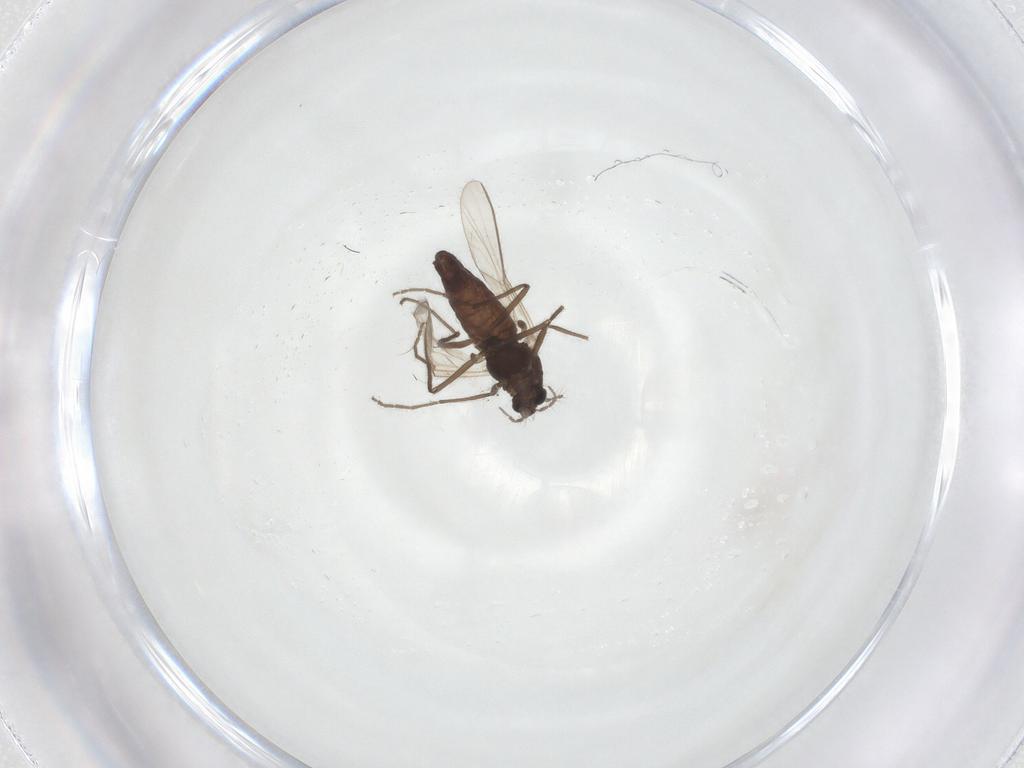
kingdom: Animalia
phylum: Arthropoda
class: Insecta
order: Diptera
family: Chironomidae
